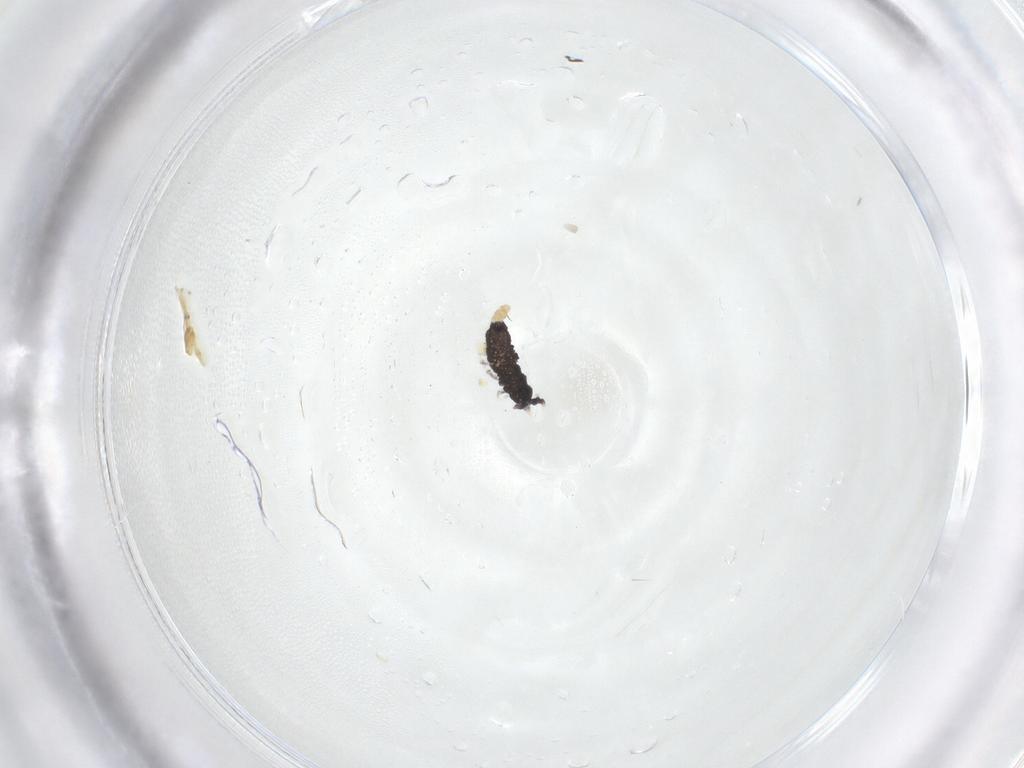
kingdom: Animalia
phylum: Arthropoda
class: Collembola
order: Poduromorpha
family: Neanuridae
